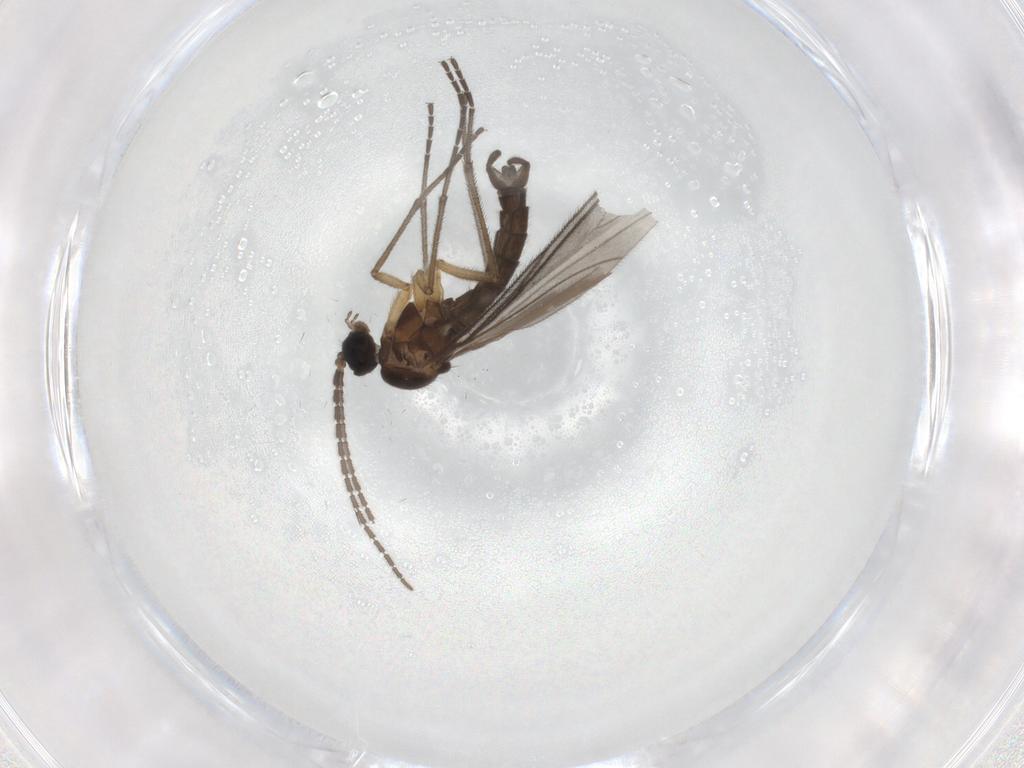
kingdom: Animalia
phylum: Arthropoda
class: Insecta
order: Diptera
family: Sciaridae
